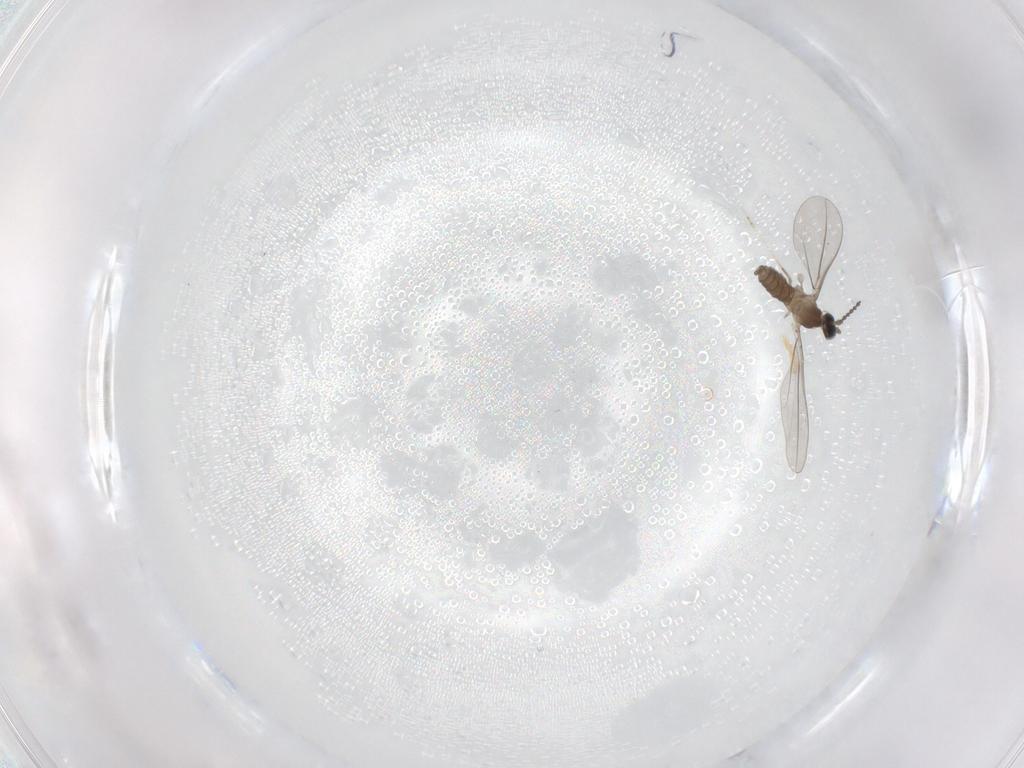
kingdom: Animalia
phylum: Arthropoda
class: Insecta
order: Diptera
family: Cecidomyiidae
